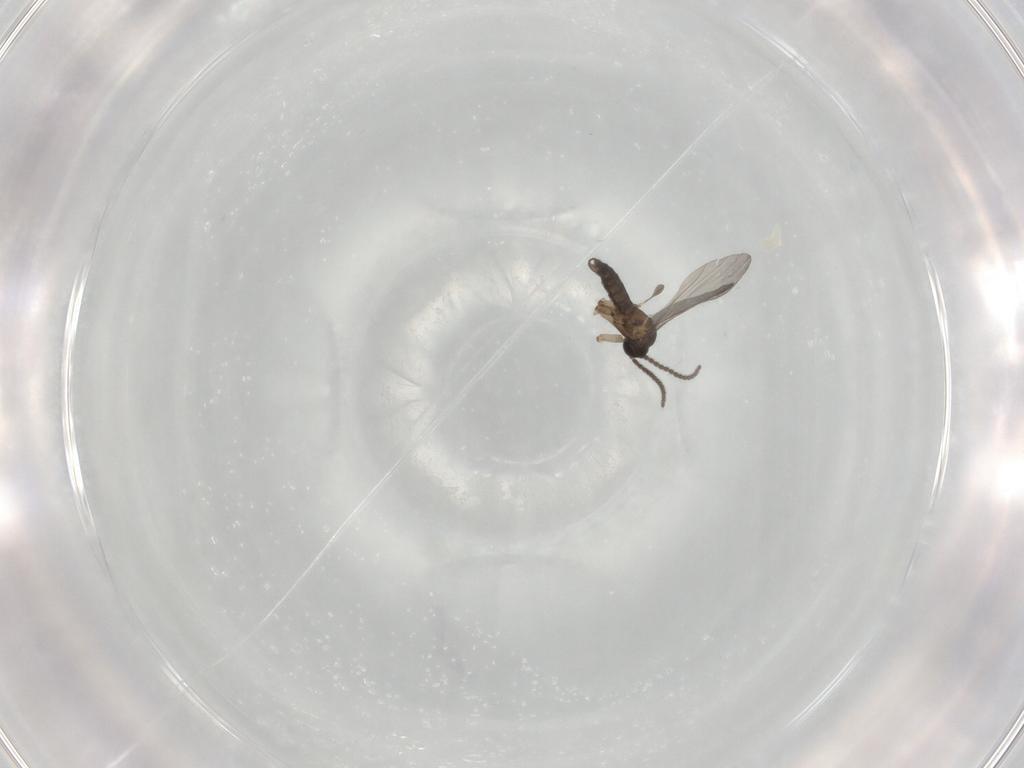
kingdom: Animalia
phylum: Arthropoda
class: Insecta
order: Diptera
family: Sciaridae
